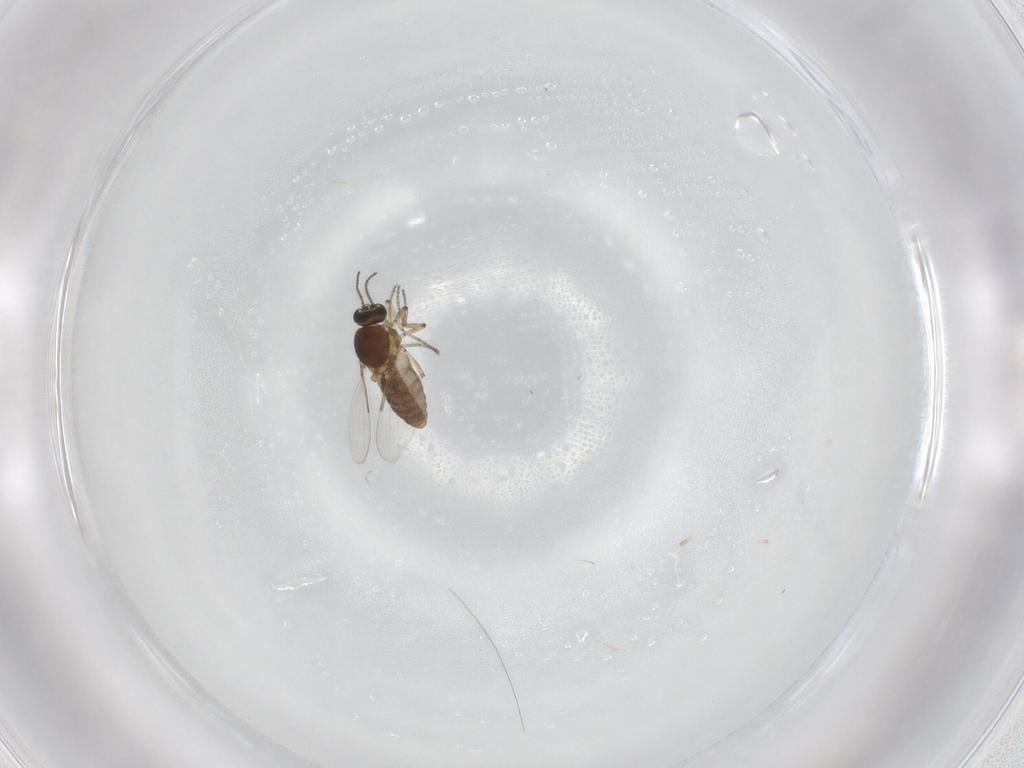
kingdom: Animalia
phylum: Arthropoda
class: Insecta
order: Diptera
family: Ceratopogonidae
